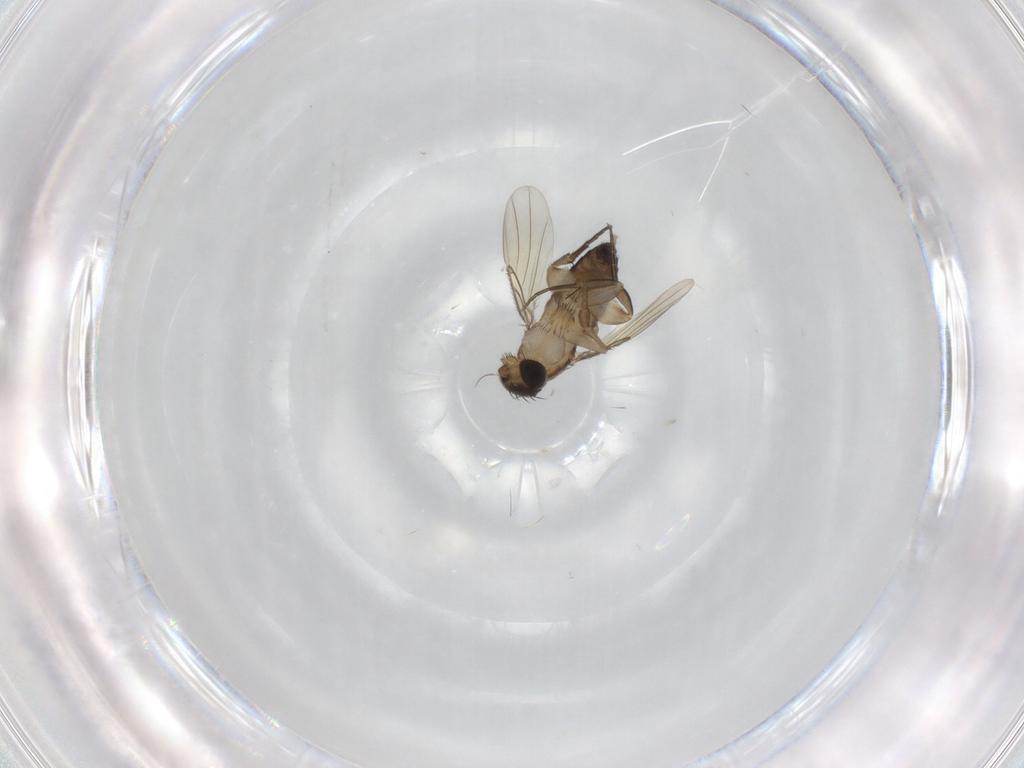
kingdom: Animalia
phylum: Arthropoda
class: Insecta
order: Diptera
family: Phoridae
